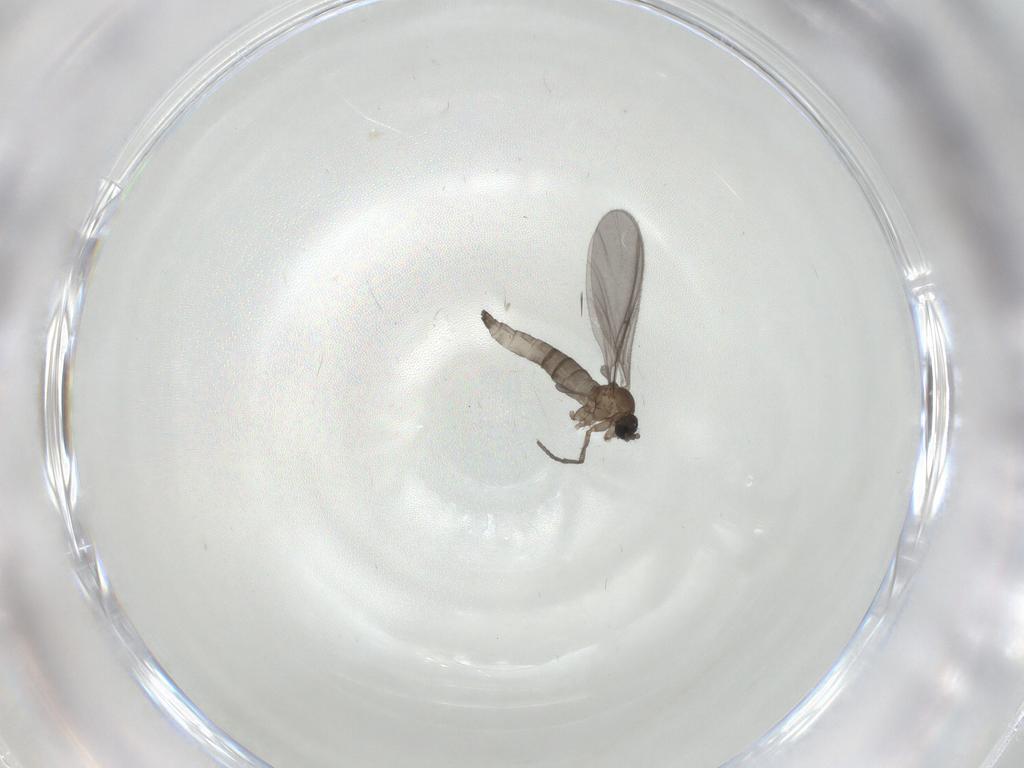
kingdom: Animalia
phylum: Arthropoda
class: Insecta
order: Diptera
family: Sciaridae
